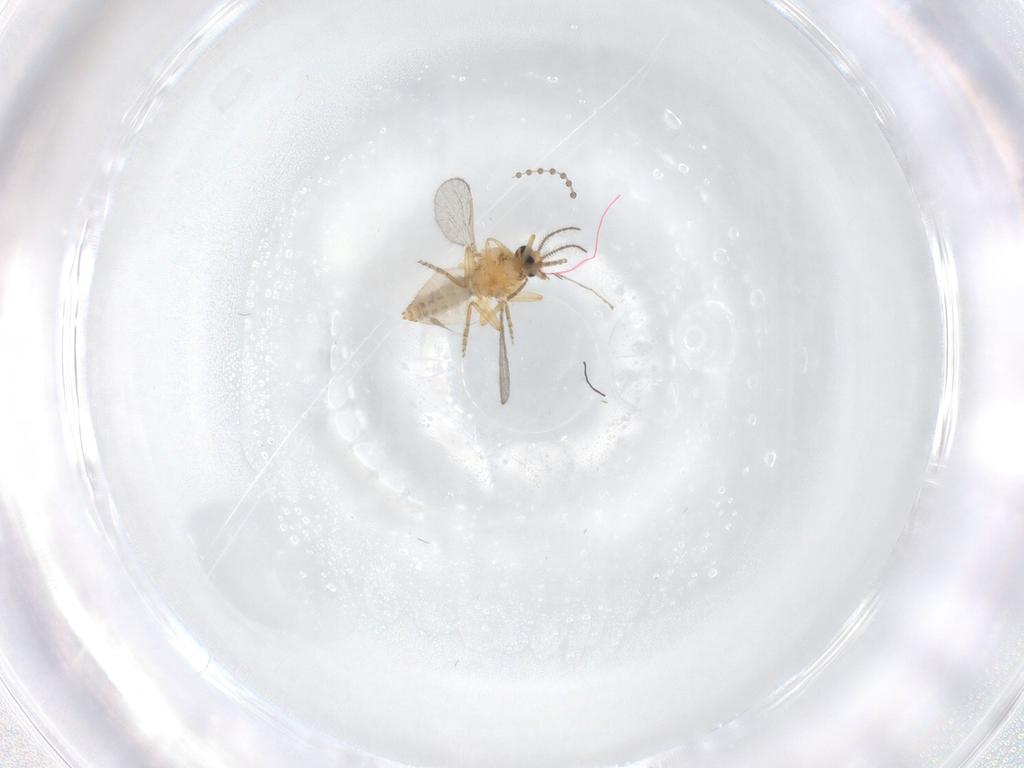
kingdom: Animalia
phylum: Arthropoda
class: Insecta
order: Diptera
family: Ceratopogonidae
